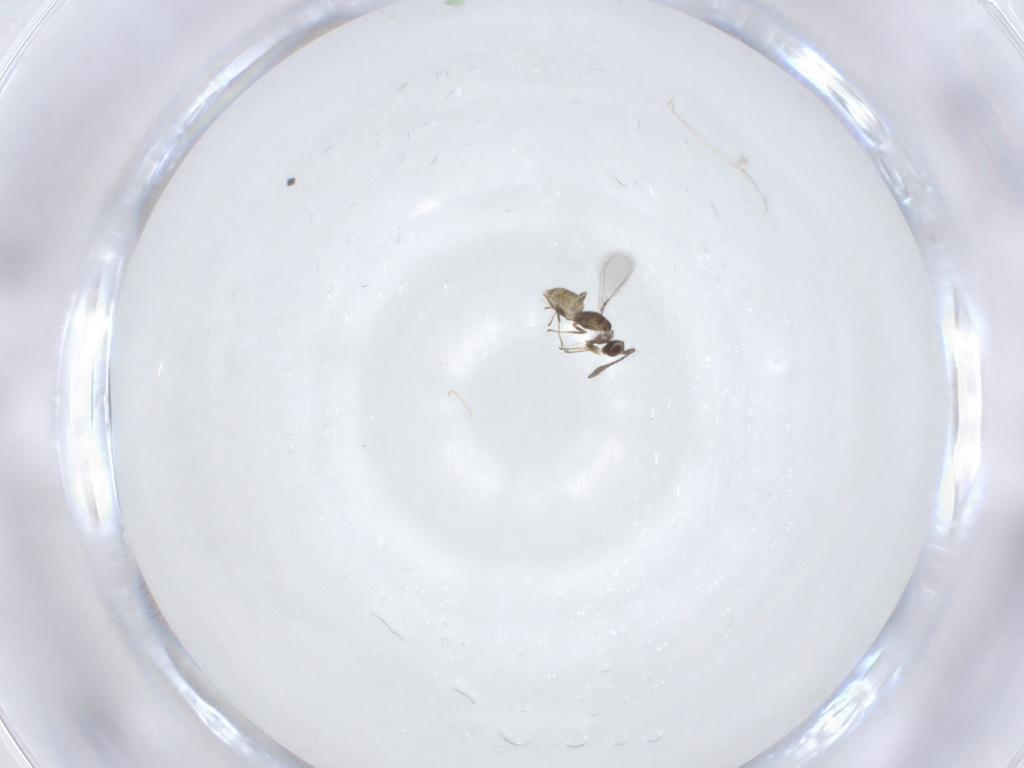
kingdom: Animalia
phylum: Arthropoda
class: Insecta
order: Hymenoptera
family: Mymaridae
